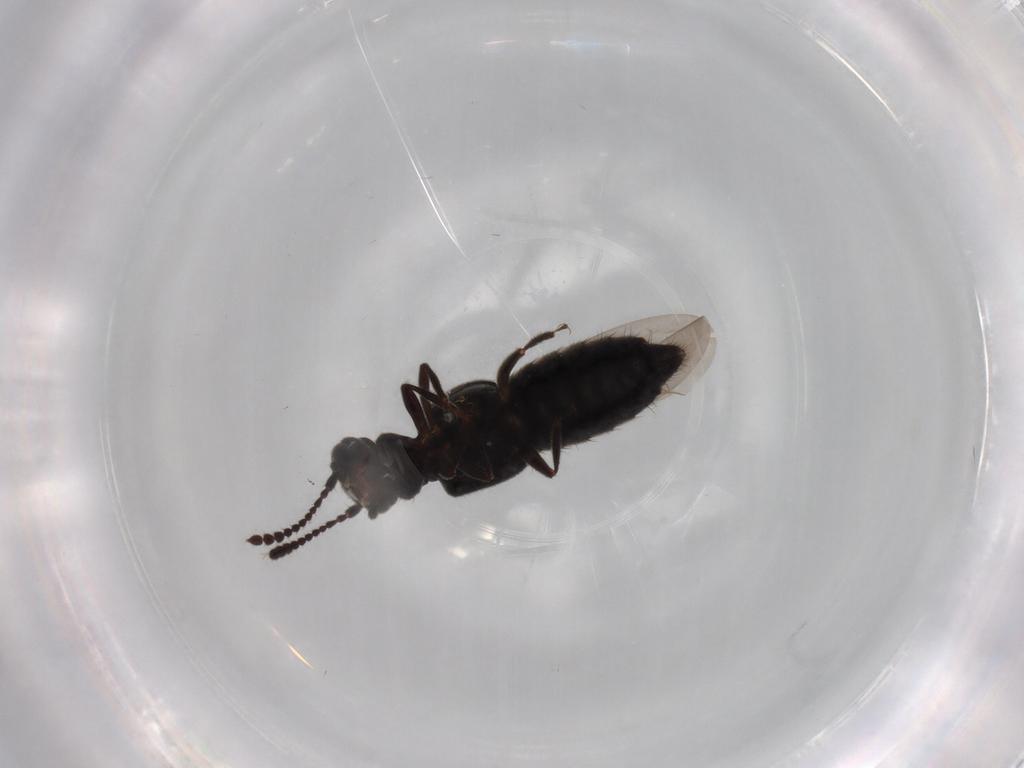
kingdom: Animalia
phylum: Arthropoda
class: Insecta
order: Coleoptera
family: Staphylinidae
